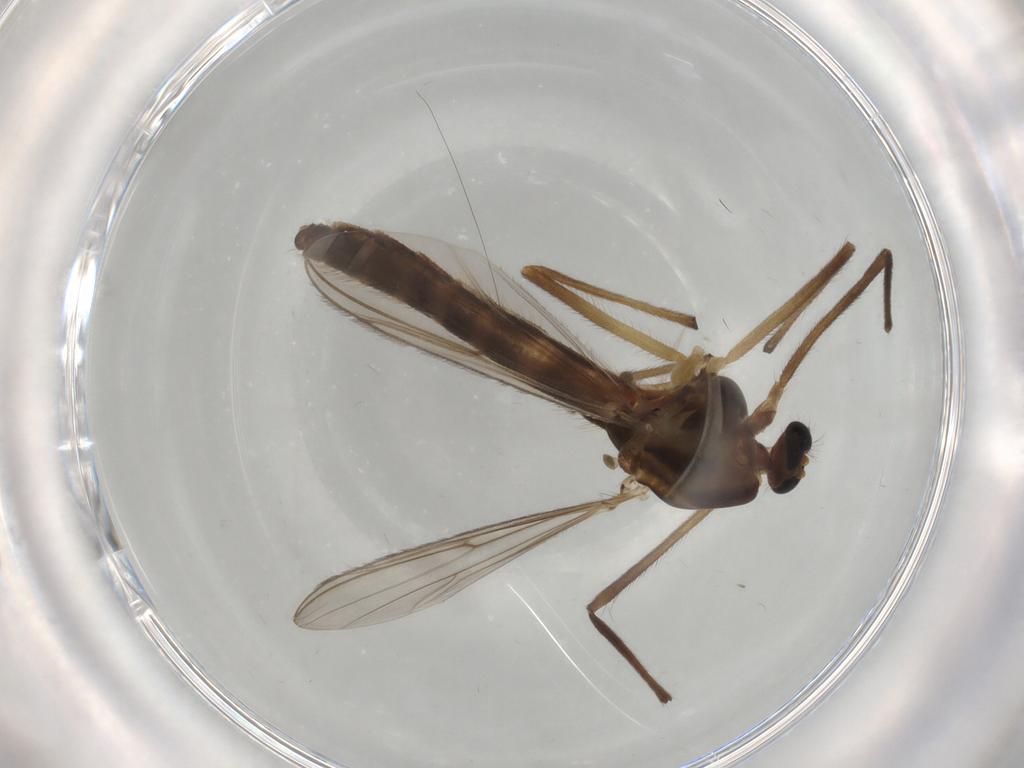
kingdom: Animalia
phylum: Arthropoda
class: Insecta
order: Diptera
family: Chironomidae
